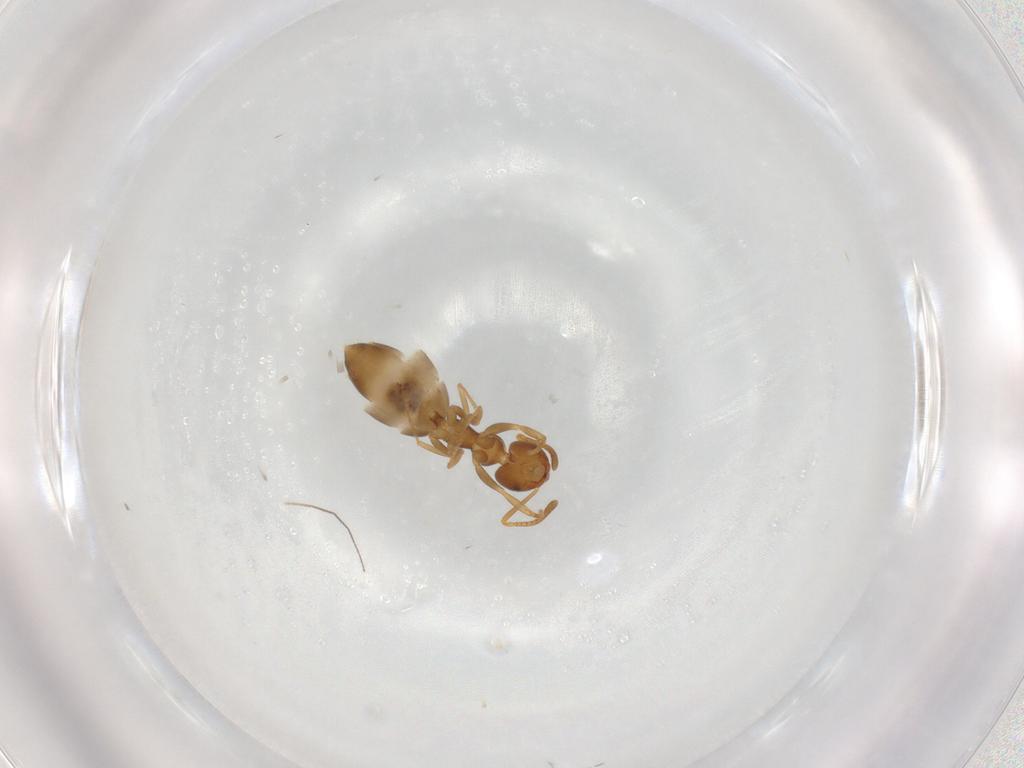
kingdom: Animalia
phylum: Arthropoda
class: Insecta
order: Hymenoptera
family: Formicidae
